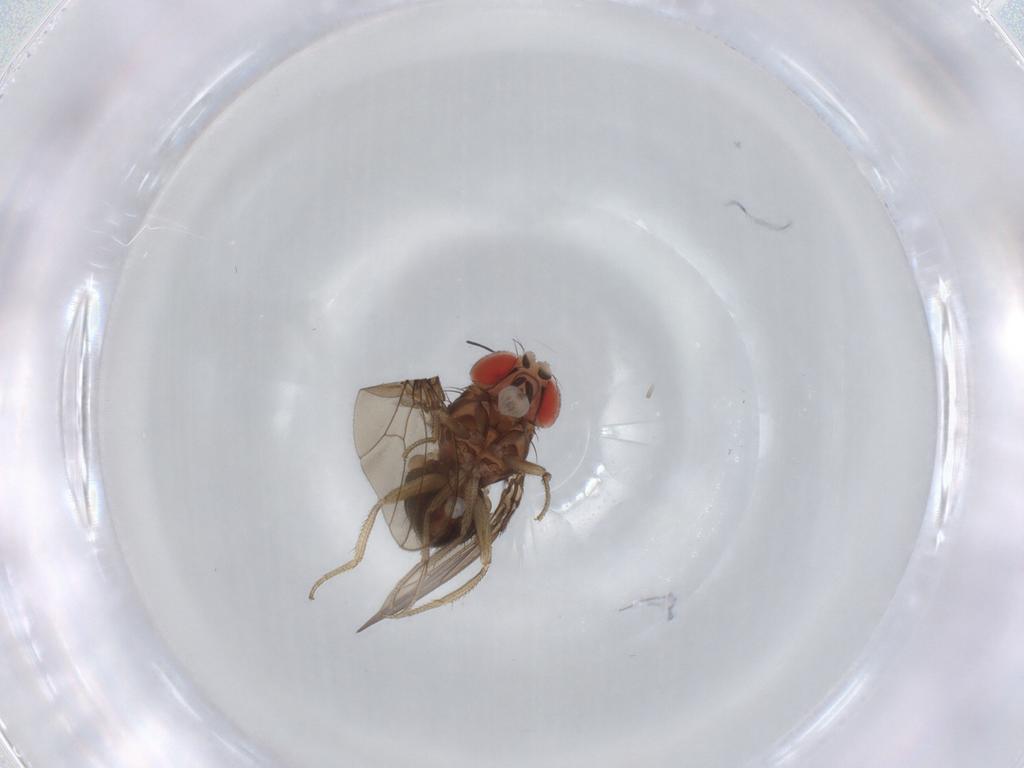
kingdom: Animalia
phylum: Arthropoda
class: Insecta
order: Diptera
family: Drosophilidae
